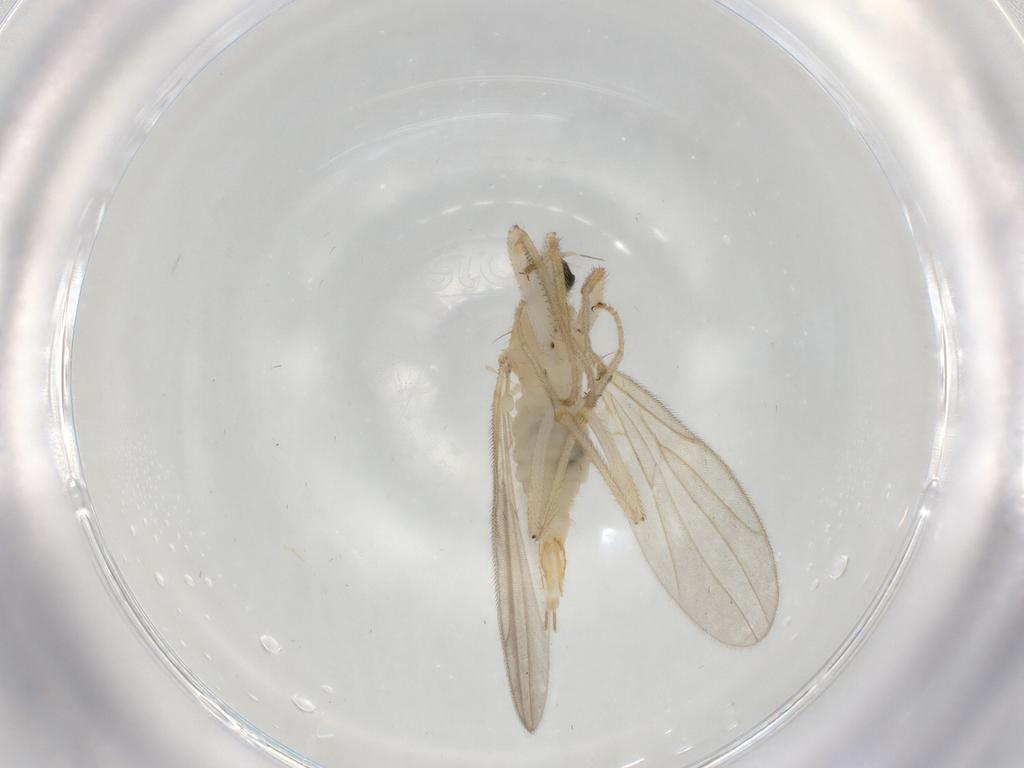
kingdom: Animalia
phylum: Arthropoda
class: Insecta
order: Diptera
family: Hybotidae
